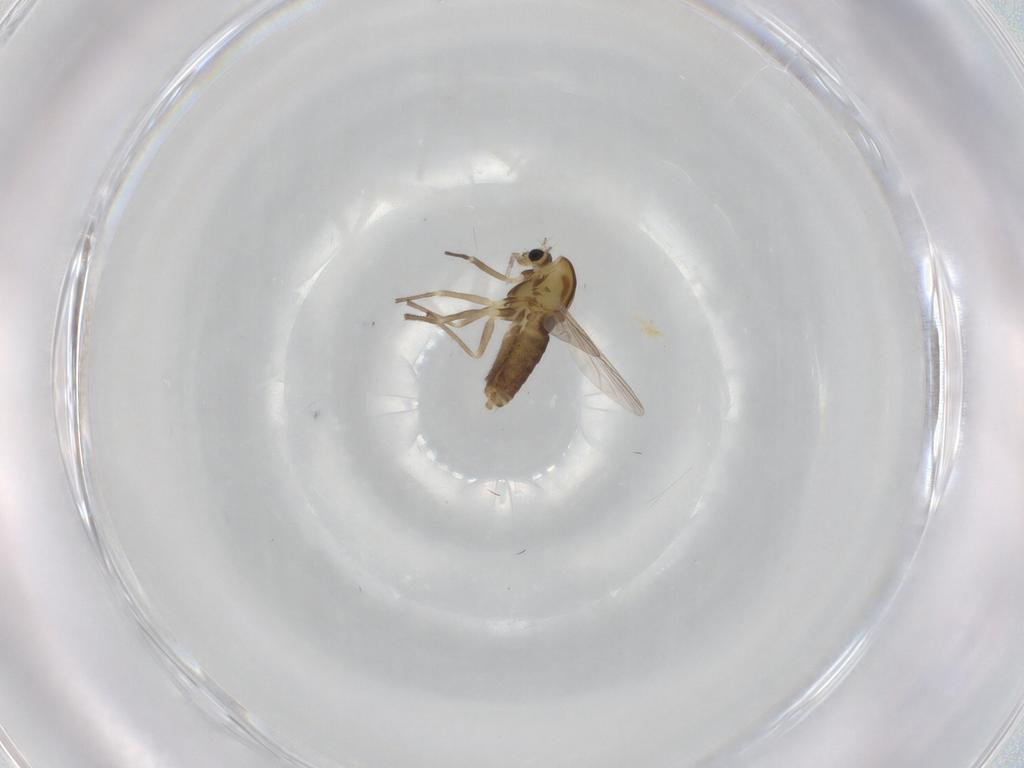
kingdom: Animalia
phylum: Arthropoda
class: Insecta
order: Diptera
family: Chironomidae
